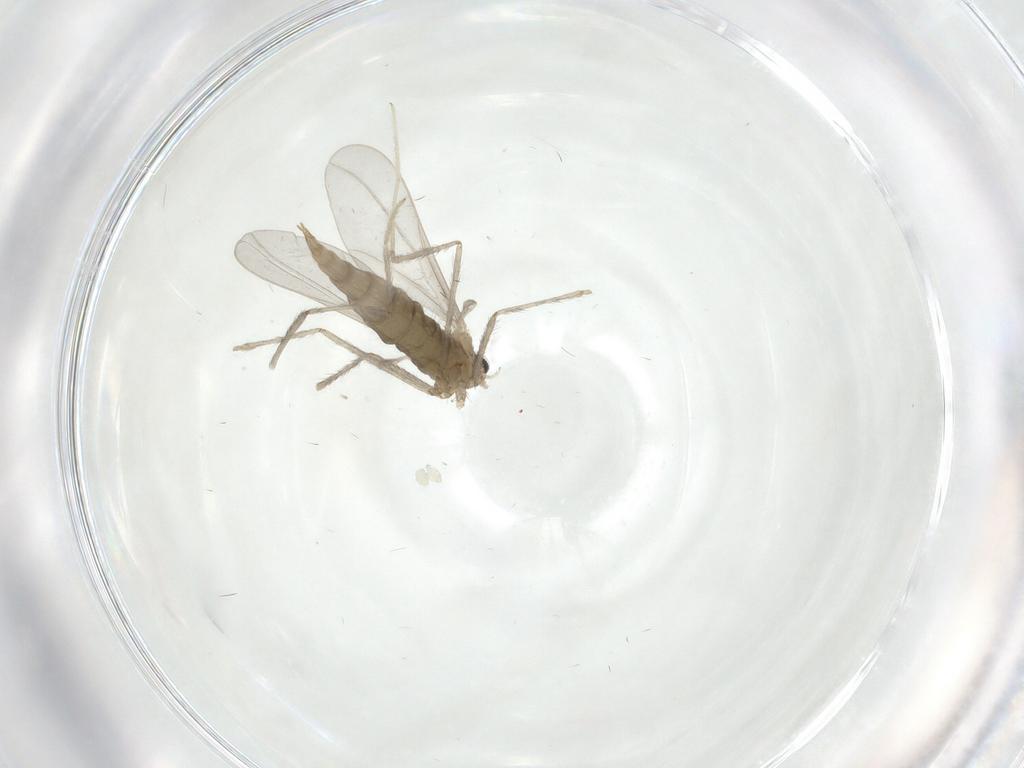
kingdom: Animalia
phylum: Arthropoda
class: Insecta
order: Diptera
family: Cecidomyiidae
